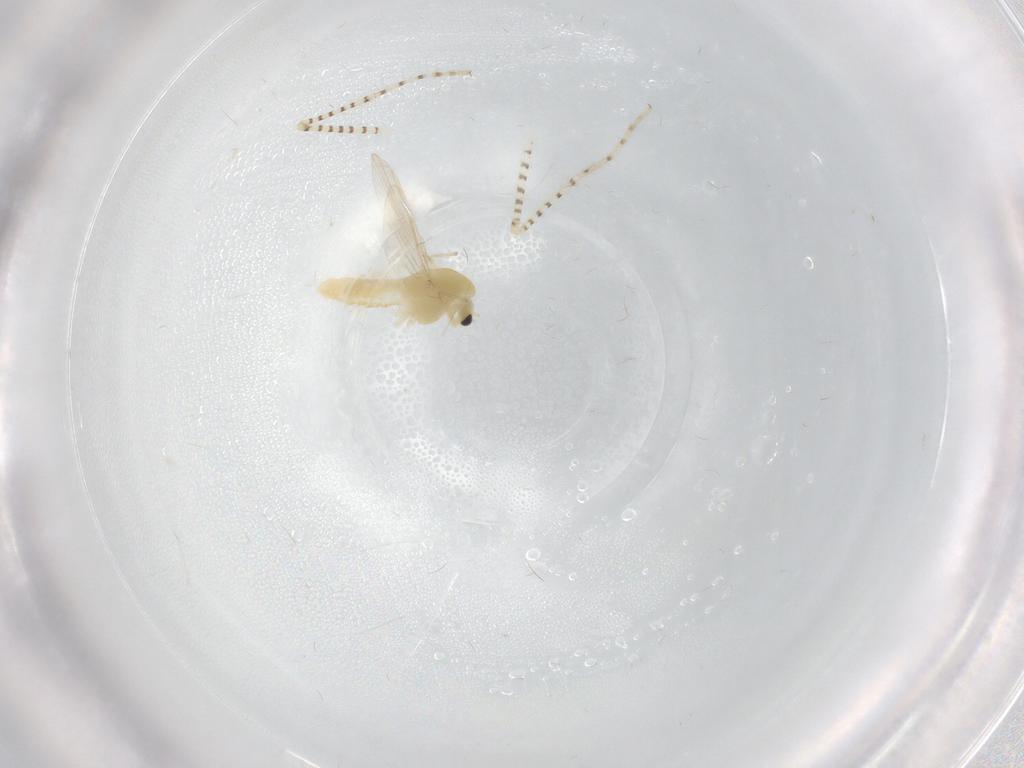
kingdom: Animalia
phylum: Arthropoda
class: Insecta
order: Diptera
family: Chaoboridae
